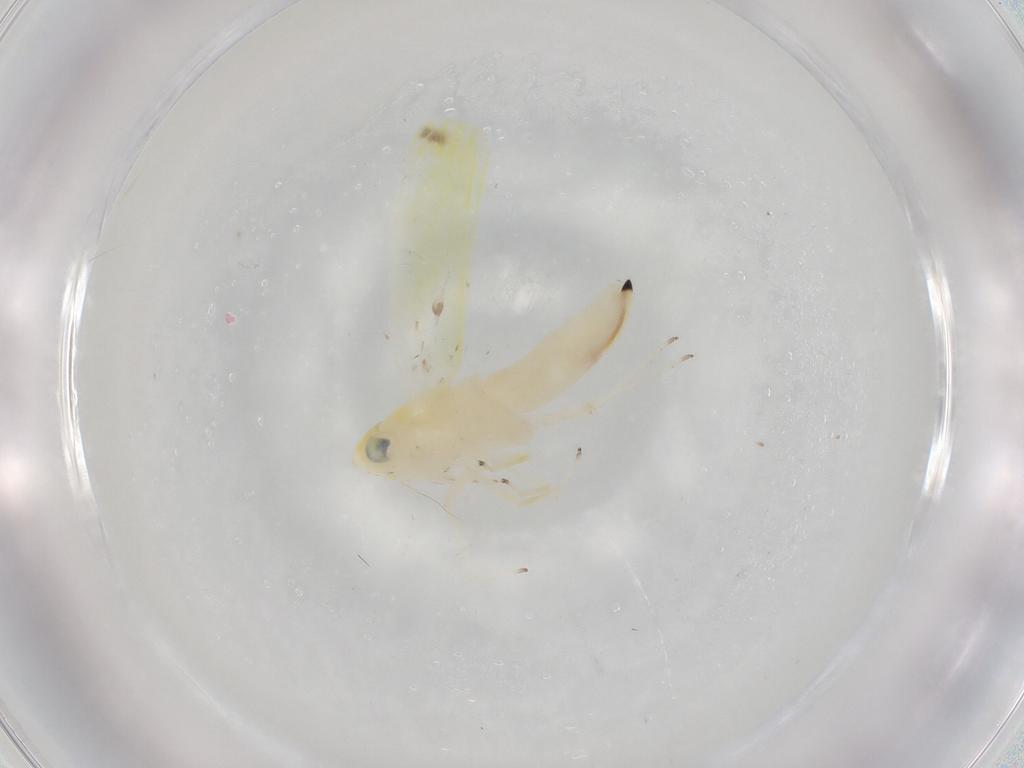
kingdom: Animalia
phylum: Arthropoda
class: Insecta
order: Hemiptera
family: Cicadellidae
